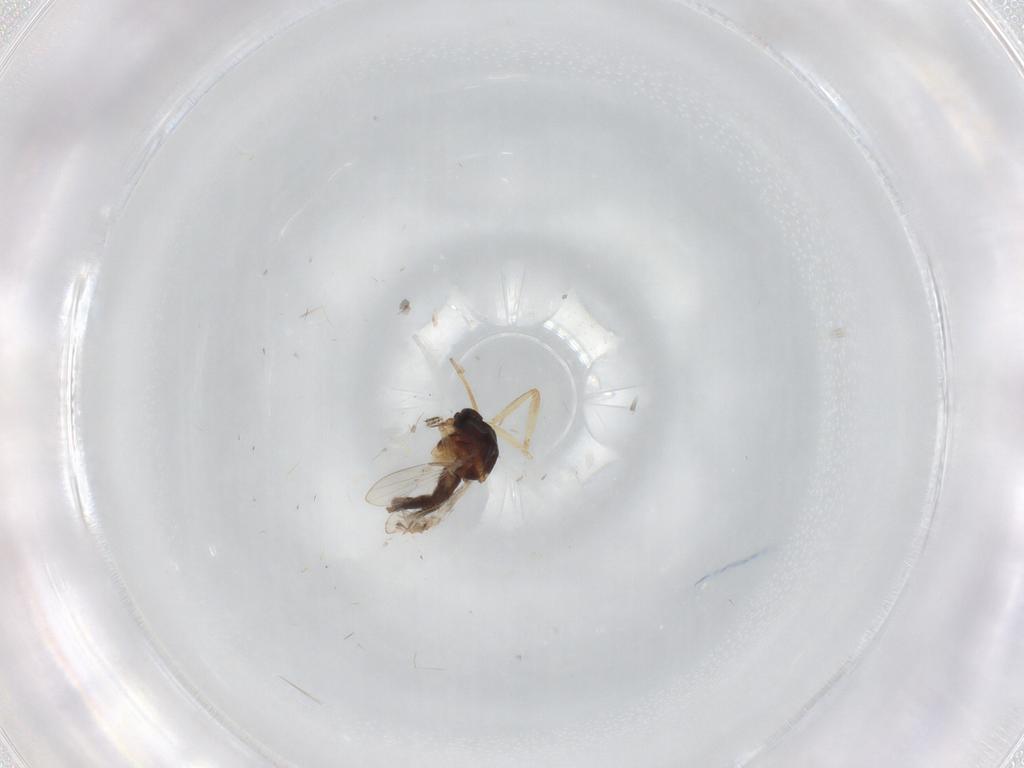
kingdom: Animalia
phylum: Arthropoda
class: Insecta
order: Diptera
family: Ceratopogonidae
